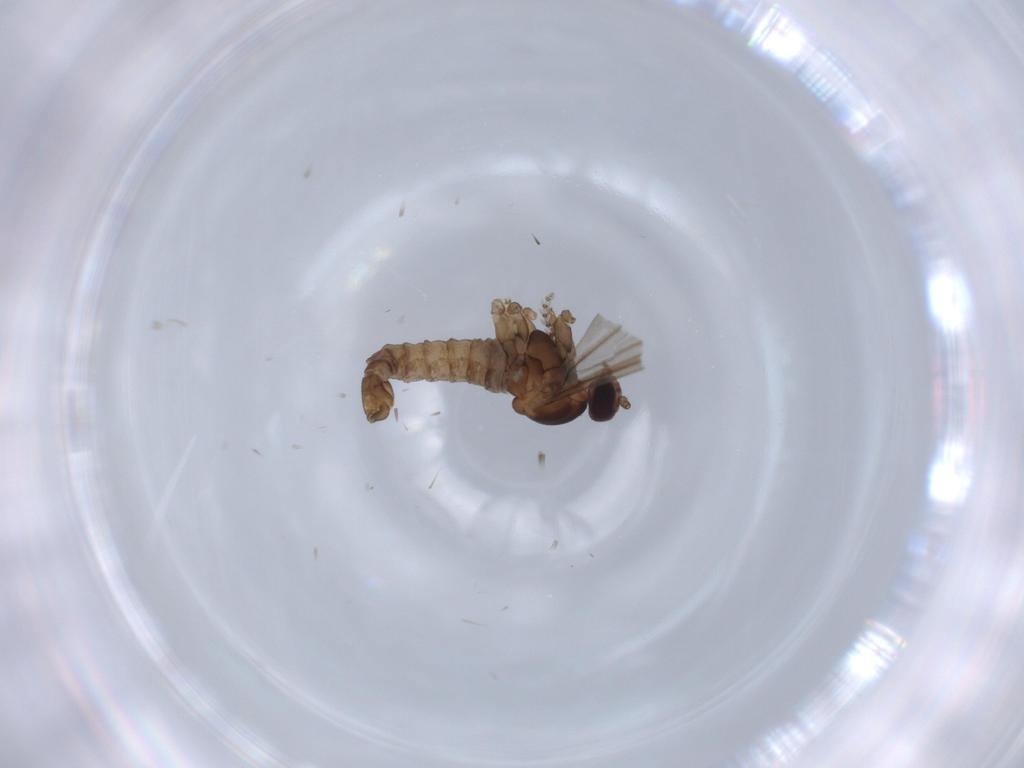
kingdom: Animalia
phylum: Arthropoda
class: Insecta
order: Diptera
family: Cecidomyiidae
